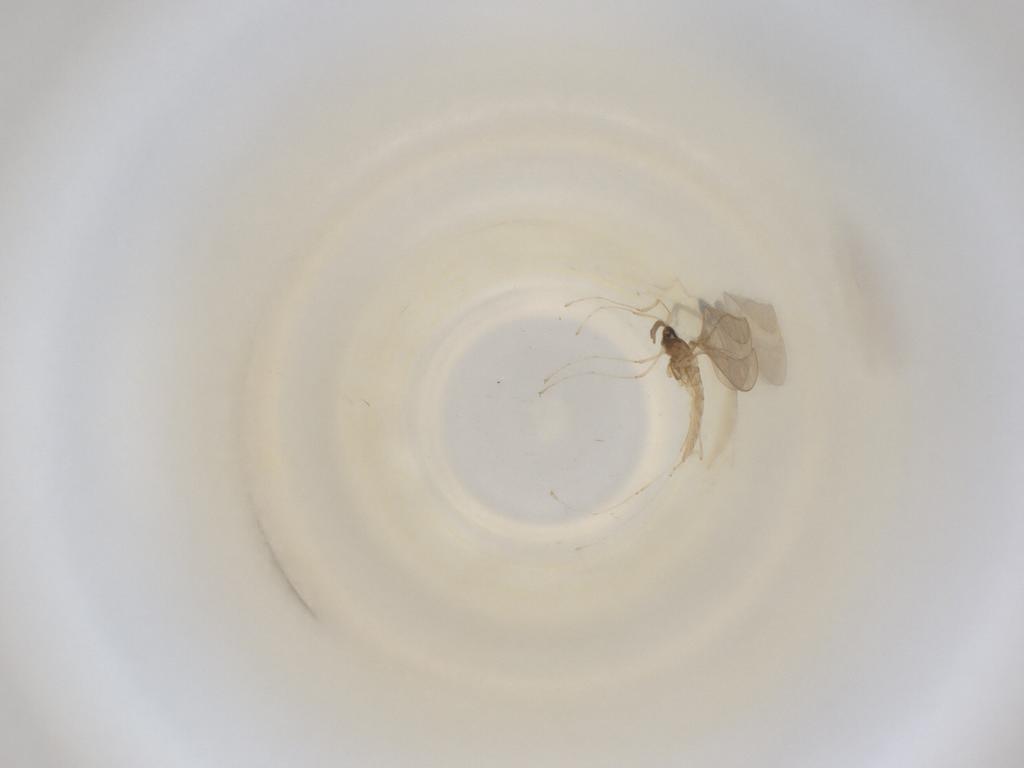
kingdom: Animalia
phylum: Arthropoda
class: Insecta
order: Diptera
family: Cecidomyiidae
